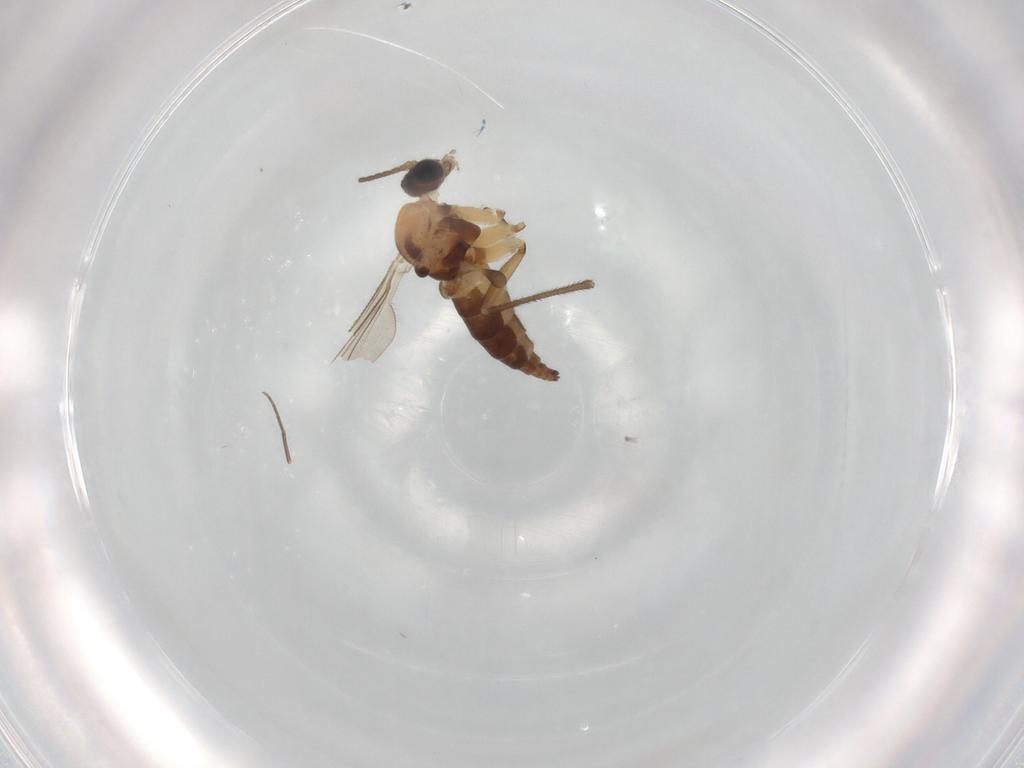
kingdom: Animalia
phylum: Arthropoda
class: Insecta
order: Diptera
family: Sciaridae
